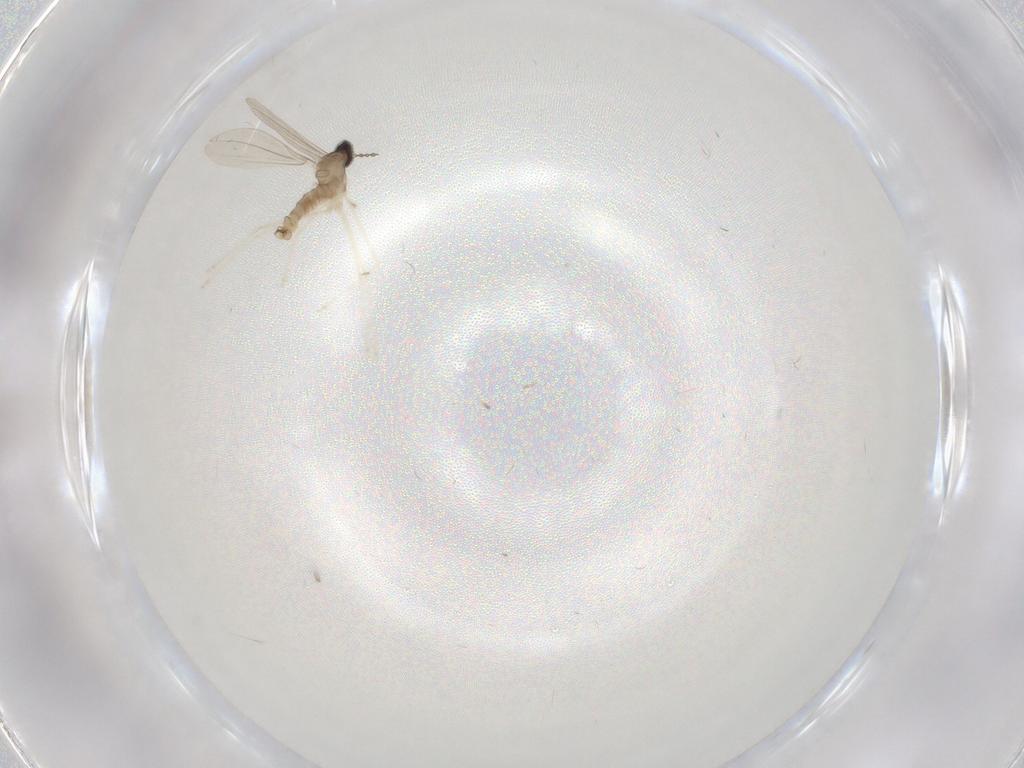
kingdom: Animalia
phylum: Arthropoda
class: Insecta
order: Diptera
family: Cecidomyiidae
